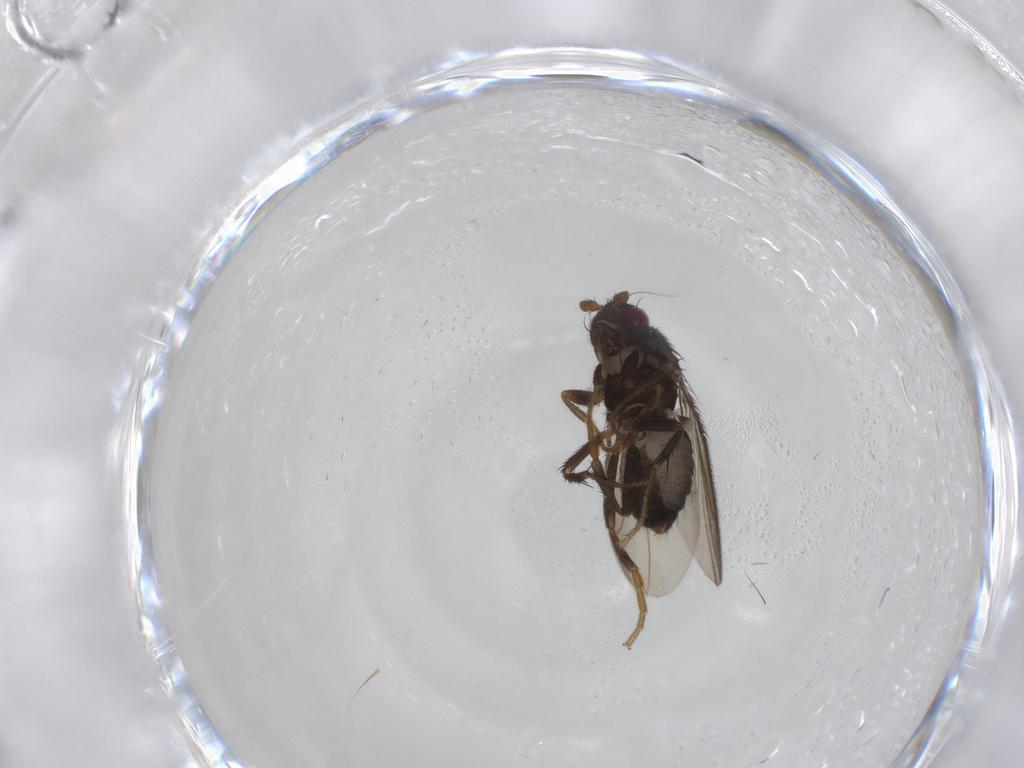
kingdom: Animalia
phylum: Arthropoda
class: Insecta
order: Diptera
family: Sphaeroceridae
